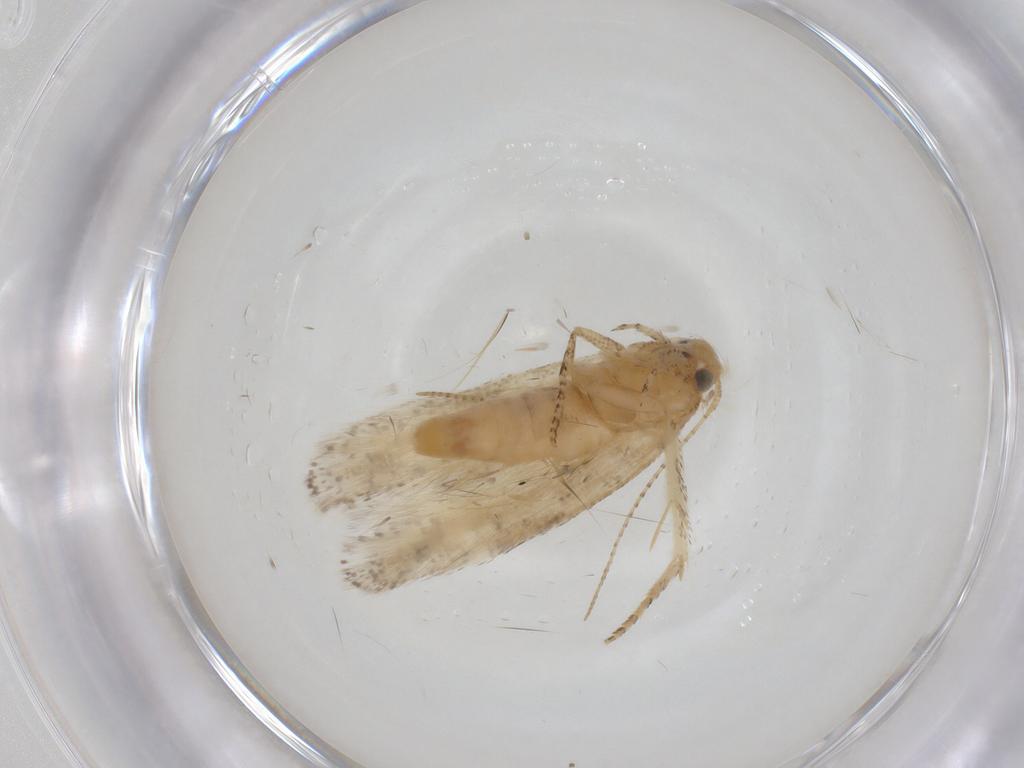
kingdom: Animalia
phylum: Arthropoda
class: Insecta
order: Lepidoptera
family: Gelechiidae
